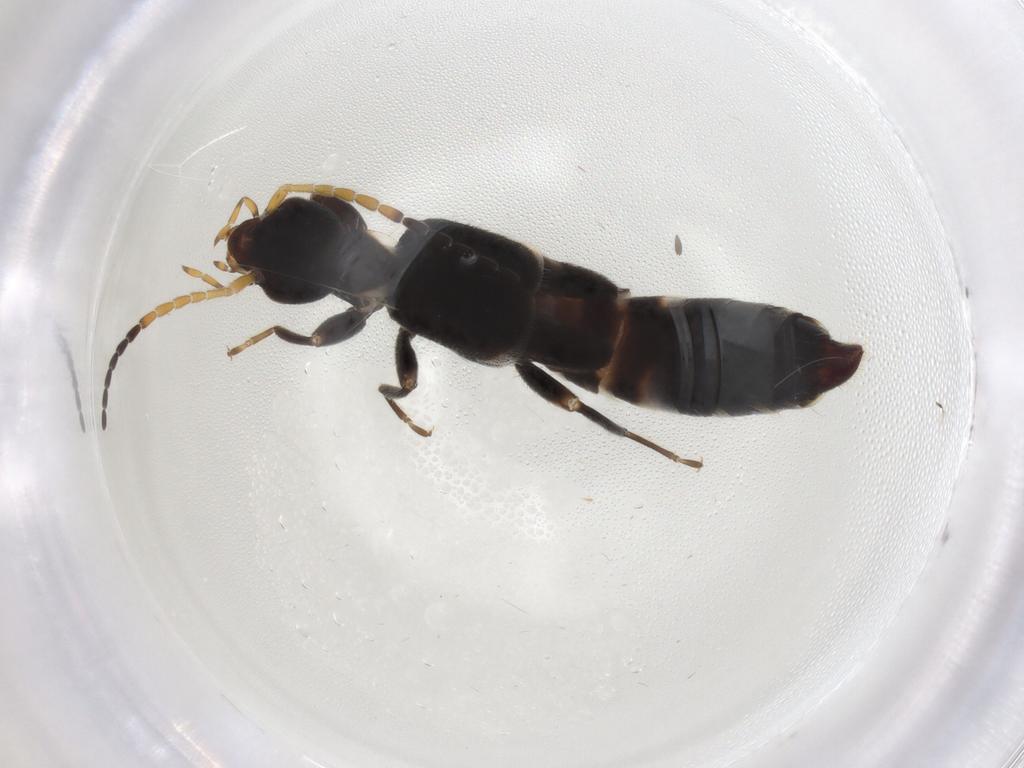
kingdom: Animalia
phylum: Arthropoda
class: Insecta
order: Dermaptera
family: Forficulidae
